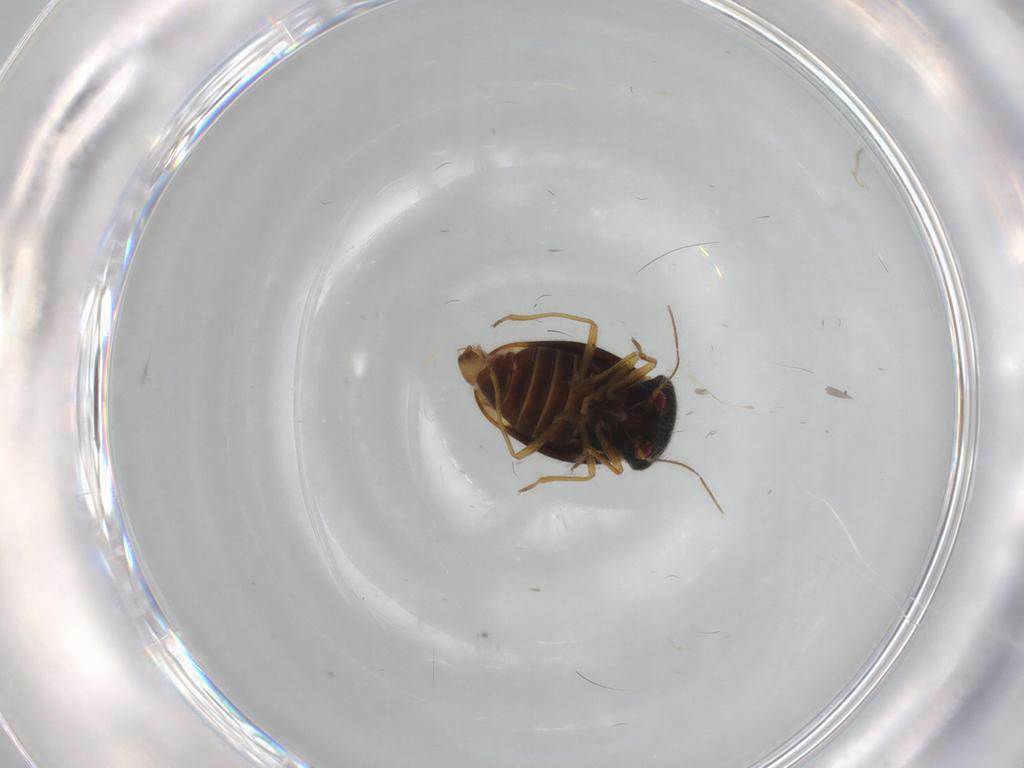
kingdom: Animalia
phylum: Arthropoda
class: Insecta
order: Hemiptera
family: Schizopteridae
